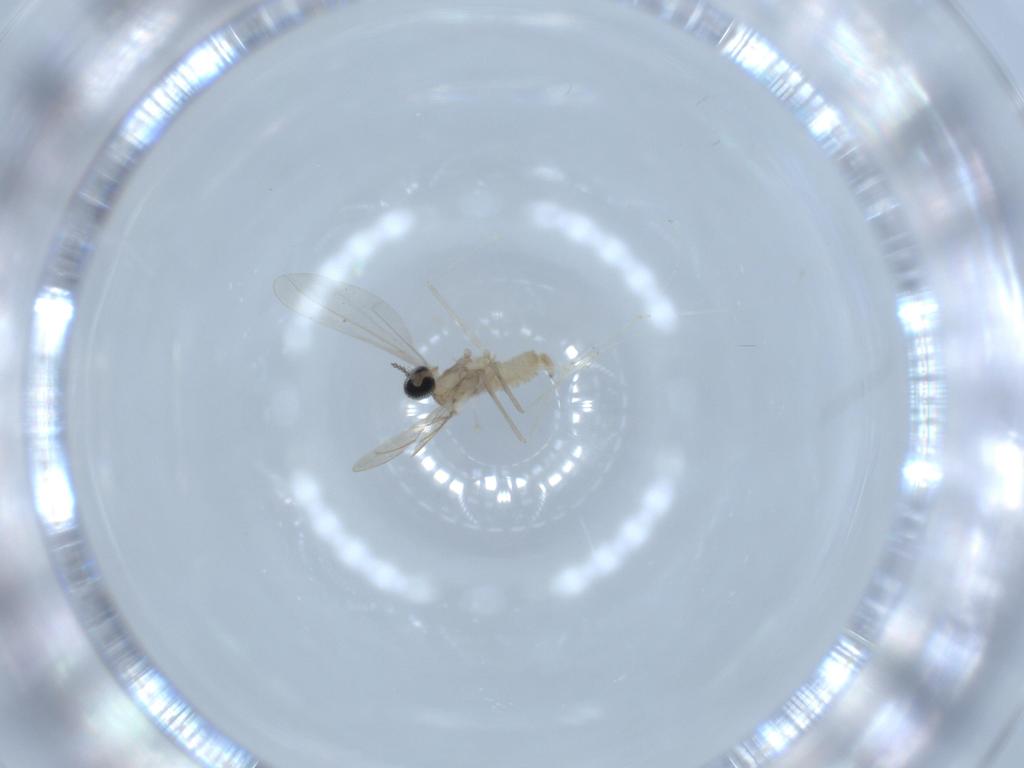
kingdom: Animalia
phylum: Arthropoda
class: Insecta
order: Diptera
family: Cecidomyiidae
